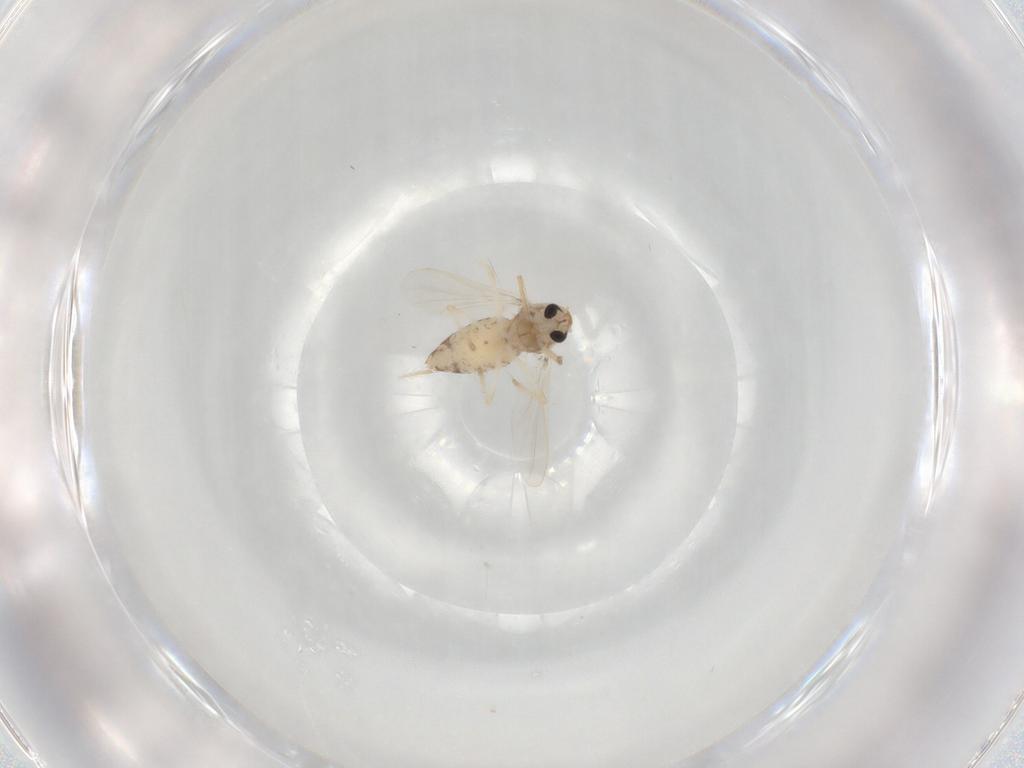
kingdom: Animalia
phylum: Arthropoda
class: Insecta
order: Diptera
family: Chironomidae
